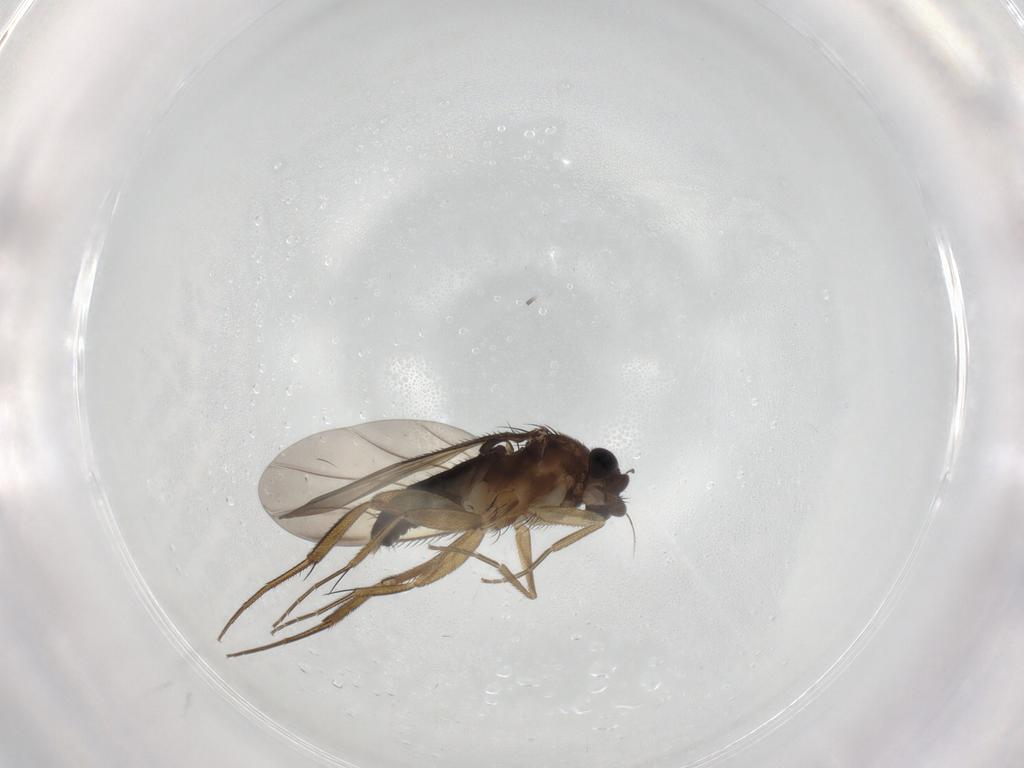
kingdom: Animalia
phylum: Arthropoda
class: Insecta
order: Diptera
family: Phoridae
